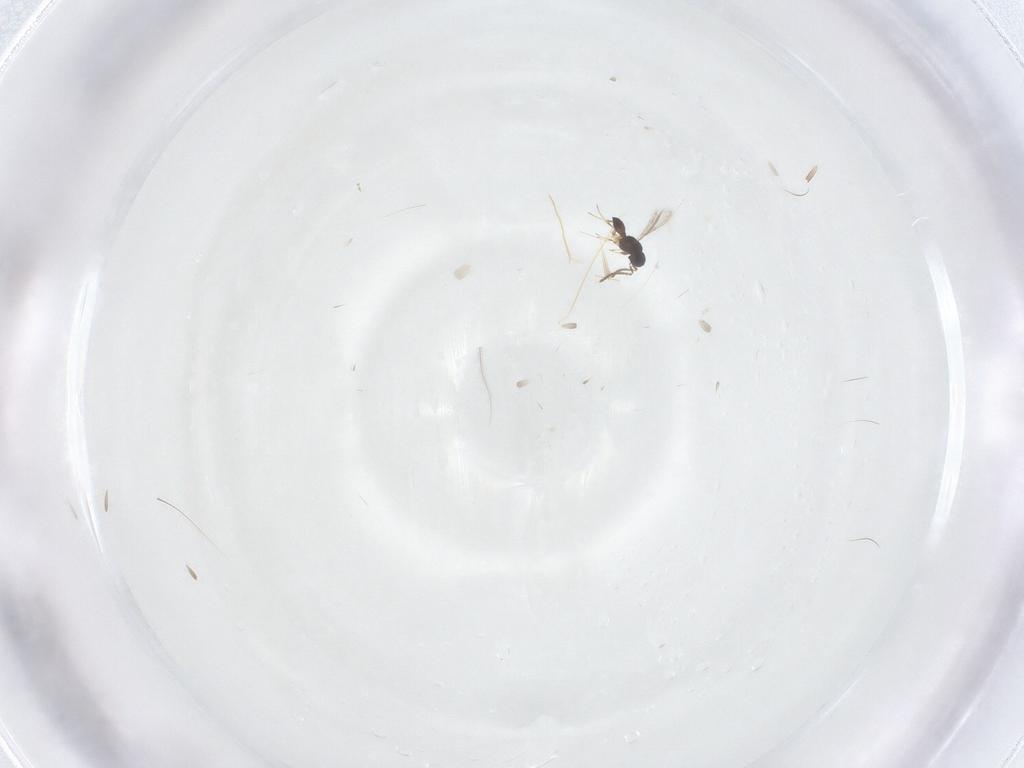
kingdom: Animalia
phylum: Arthropoda
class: Insecta
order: Hymenoptera
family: Scelionidae
